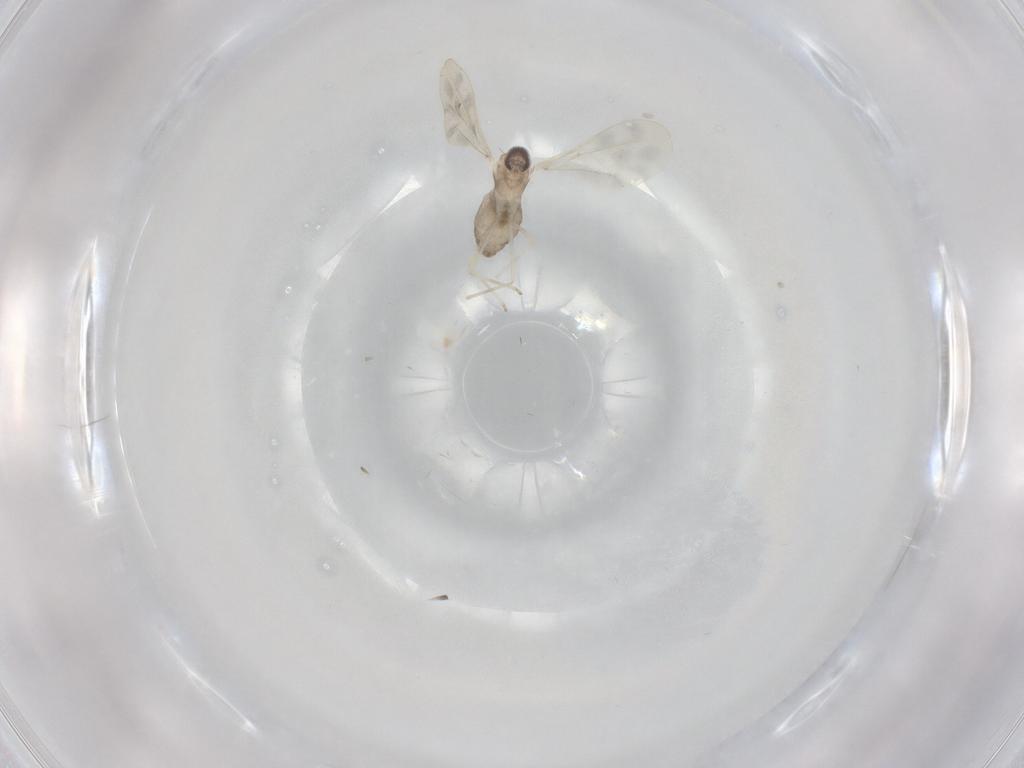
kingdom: Animalia
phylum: Arthropoda
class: Insecta
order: Diptera
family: Cecidomyiidae
